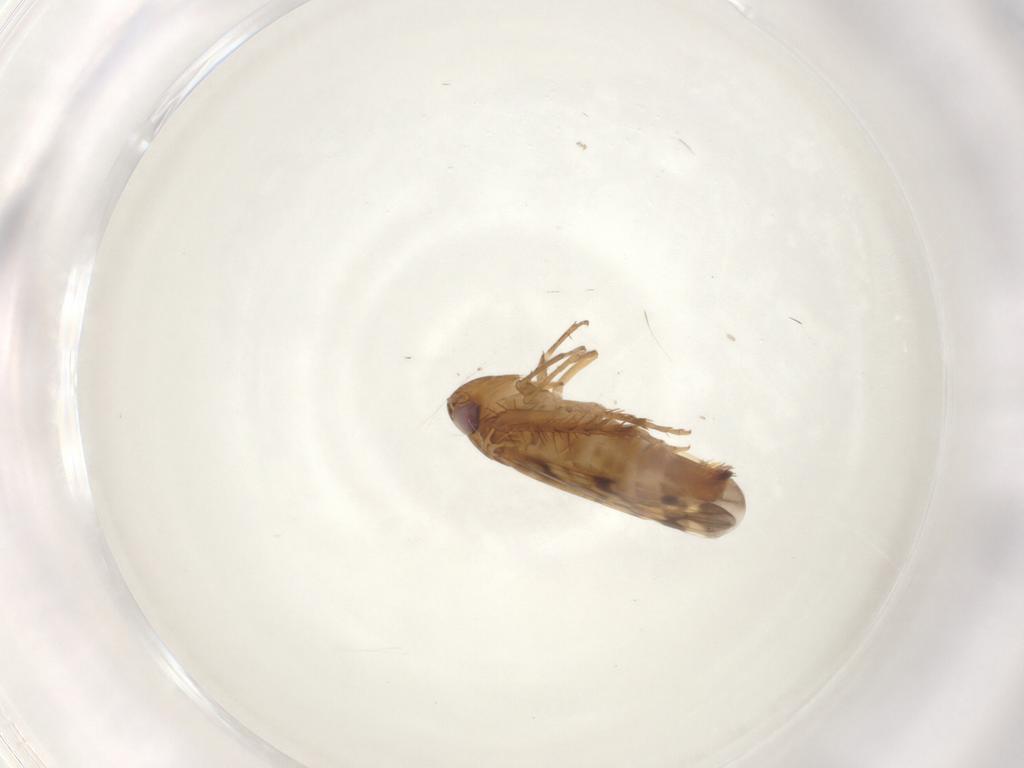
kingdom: Animalia
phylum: Arthropoda
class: Insecta
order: Hemiptera
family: Cicadellidae
